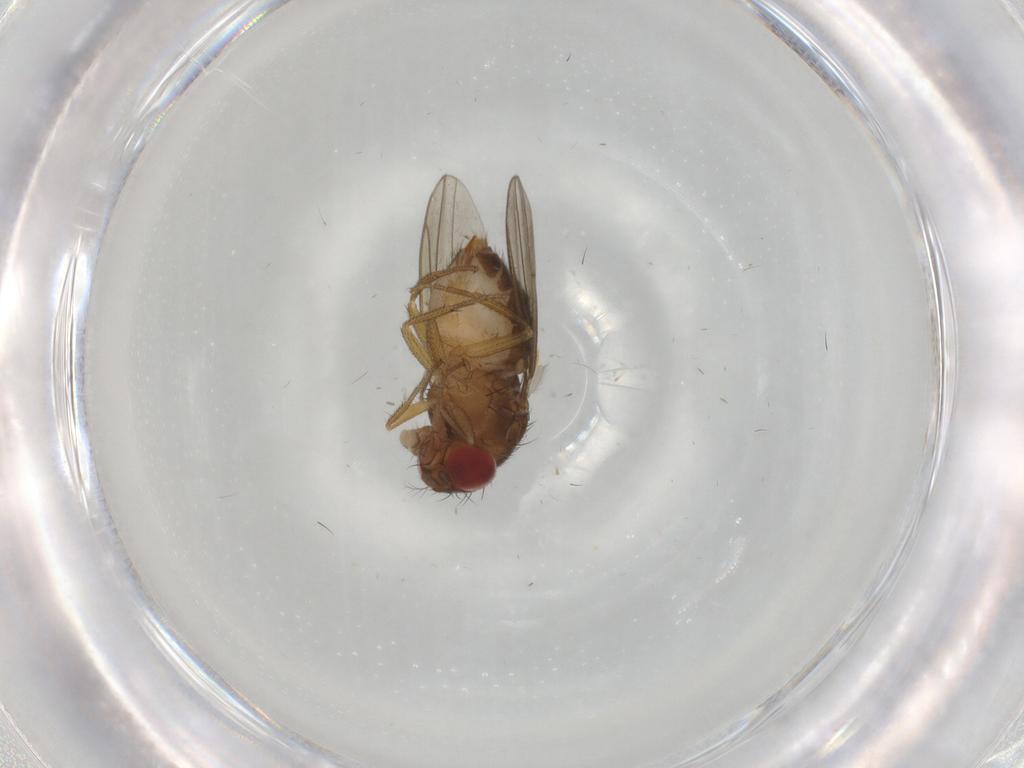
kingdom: Animalia
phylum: Arthropoda
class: Insecta
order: Diptera
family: Drosophilidae
